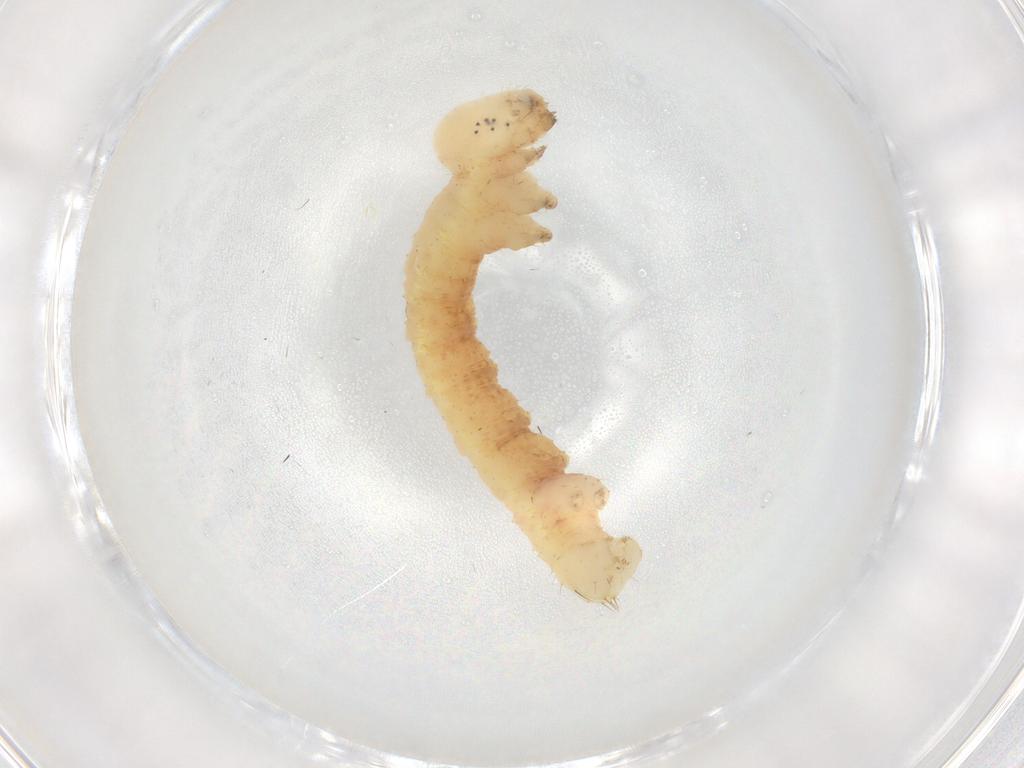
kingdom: Animalia
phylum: Arthropoda
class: Insecta
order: Lepidoptera
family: Geometridae
